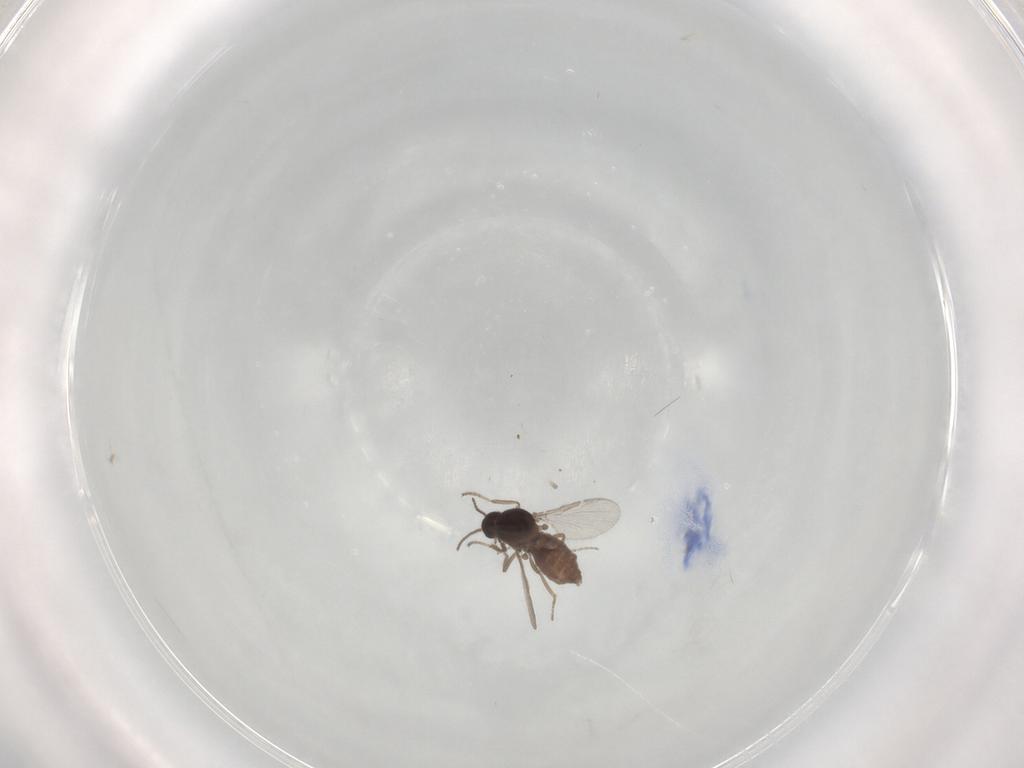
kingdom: Animalia
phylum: Arthropoda
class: Insecta
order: Diptera
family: Ceratopogonidae
